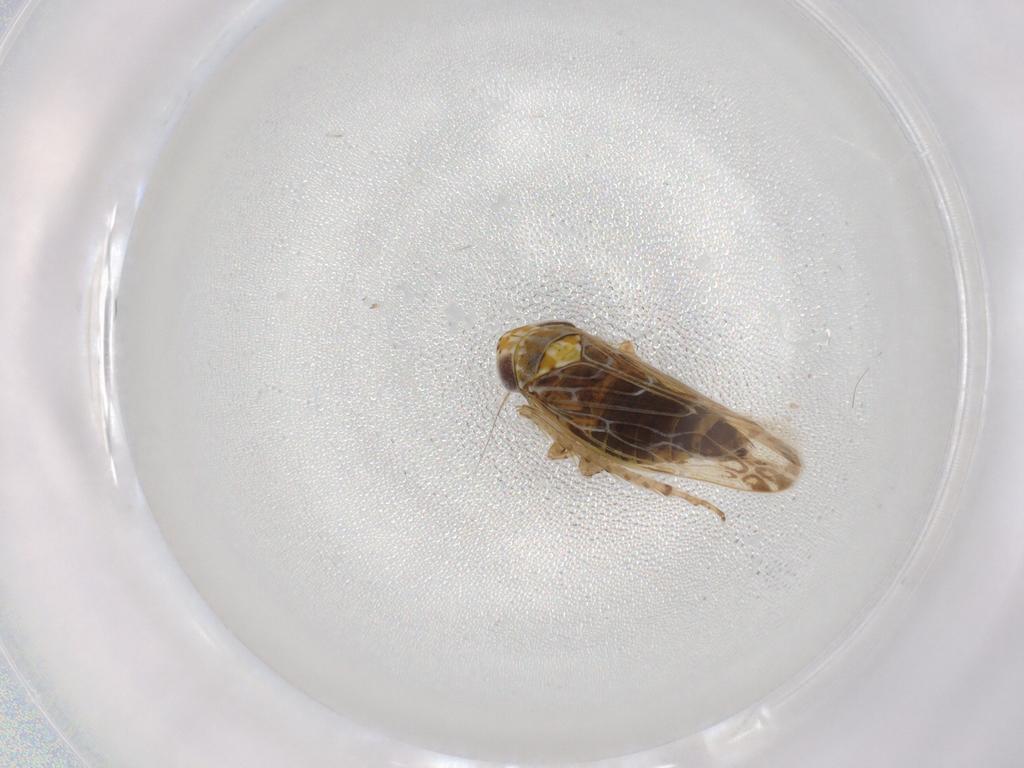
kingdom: Animalia
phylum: Arthropoda
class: Insecta
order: Hemiptera
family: Cicadellidae
